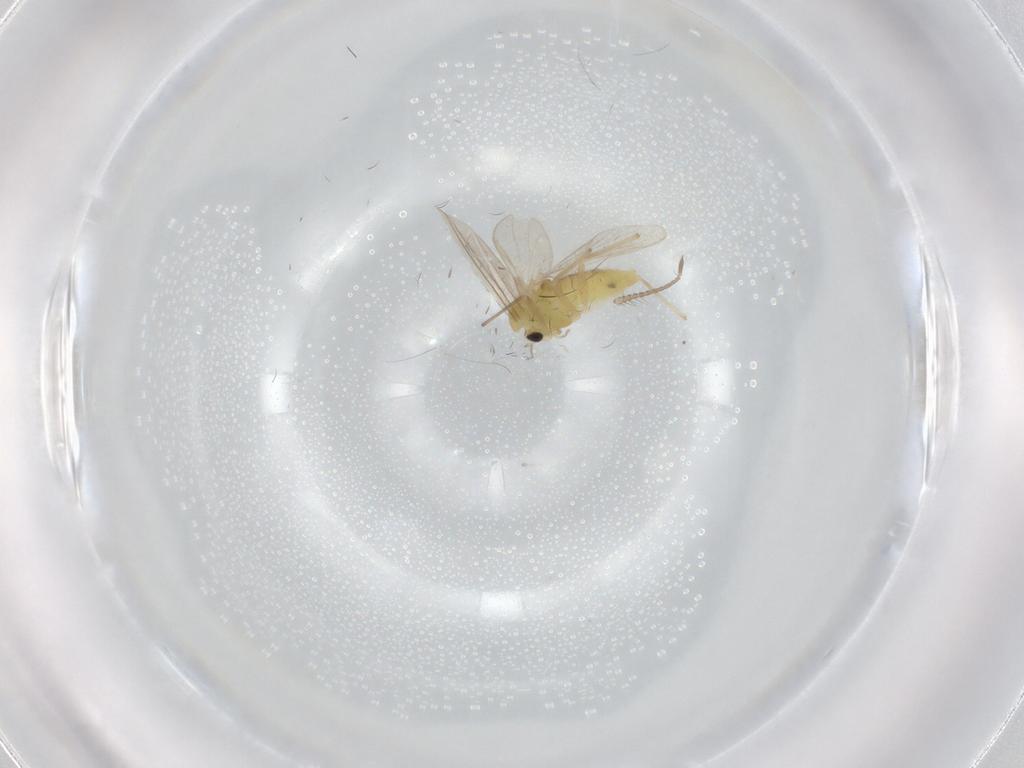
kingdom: Animalia
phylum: Arthropoda
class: Insecta
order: Diptera
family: Chironomidae
